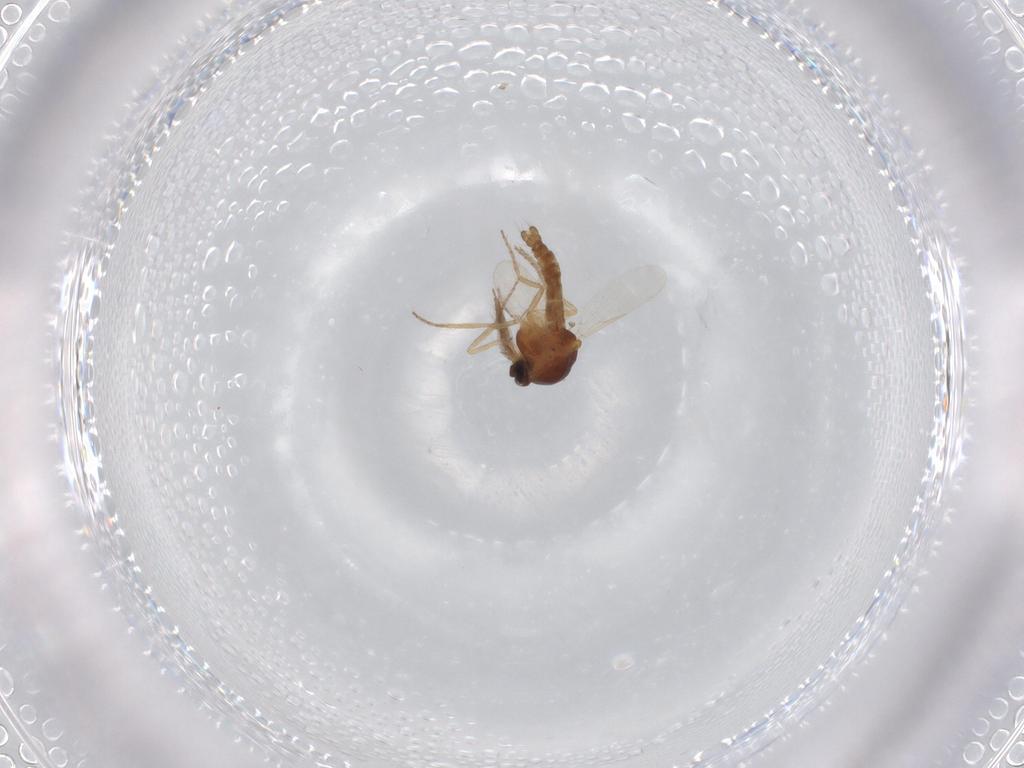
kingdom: Animalia
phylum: Arthropoda
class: Insecta
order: Diptera
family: Ceratopogonidae
